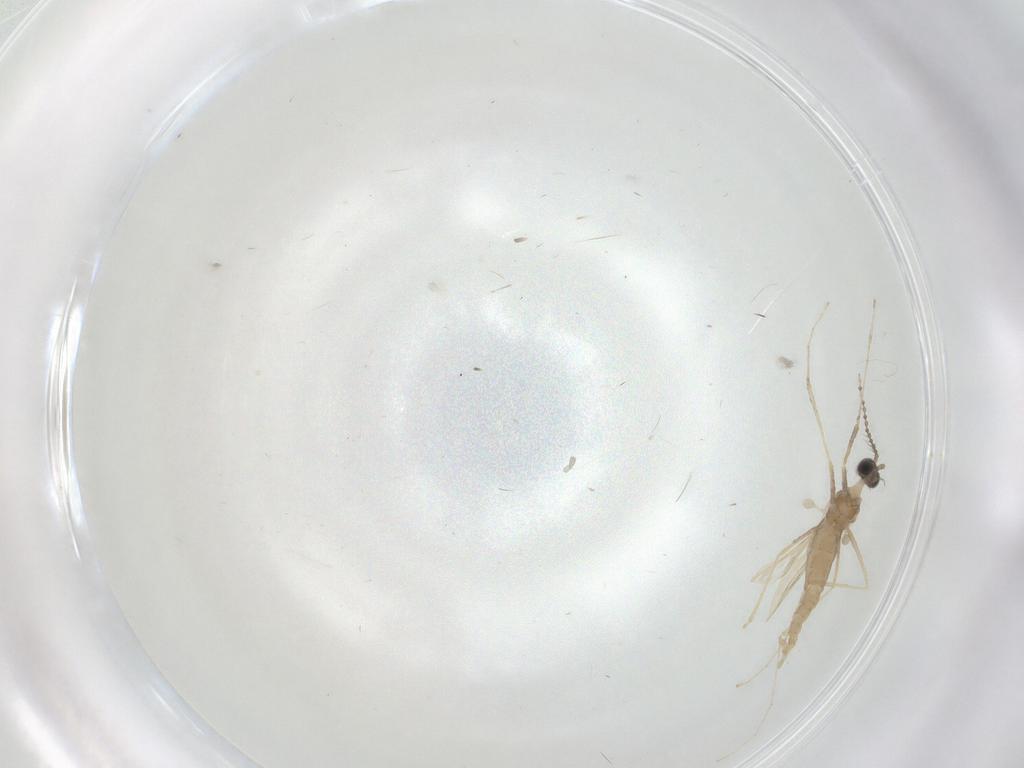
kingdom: Animalia
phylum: Arthropoda
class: Insecta
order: Diptera
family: Cecidomyiidae
